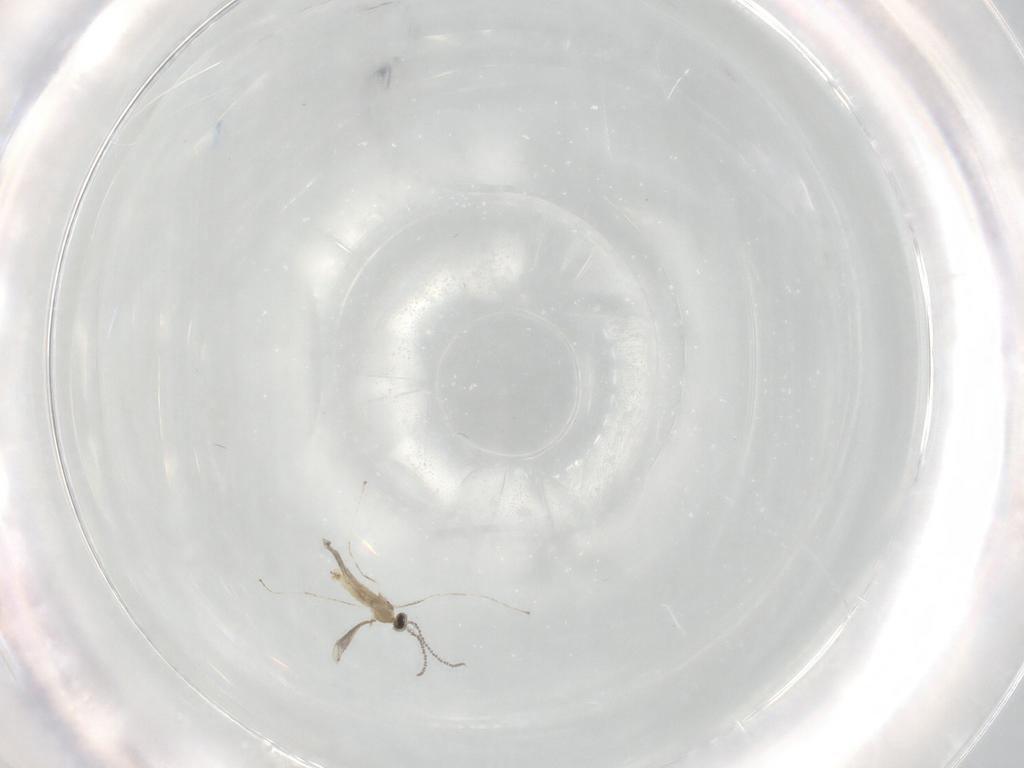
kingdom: Animalia
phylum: Arthropoda
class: Insecta
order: Diptera
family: Cecidomyiidae
